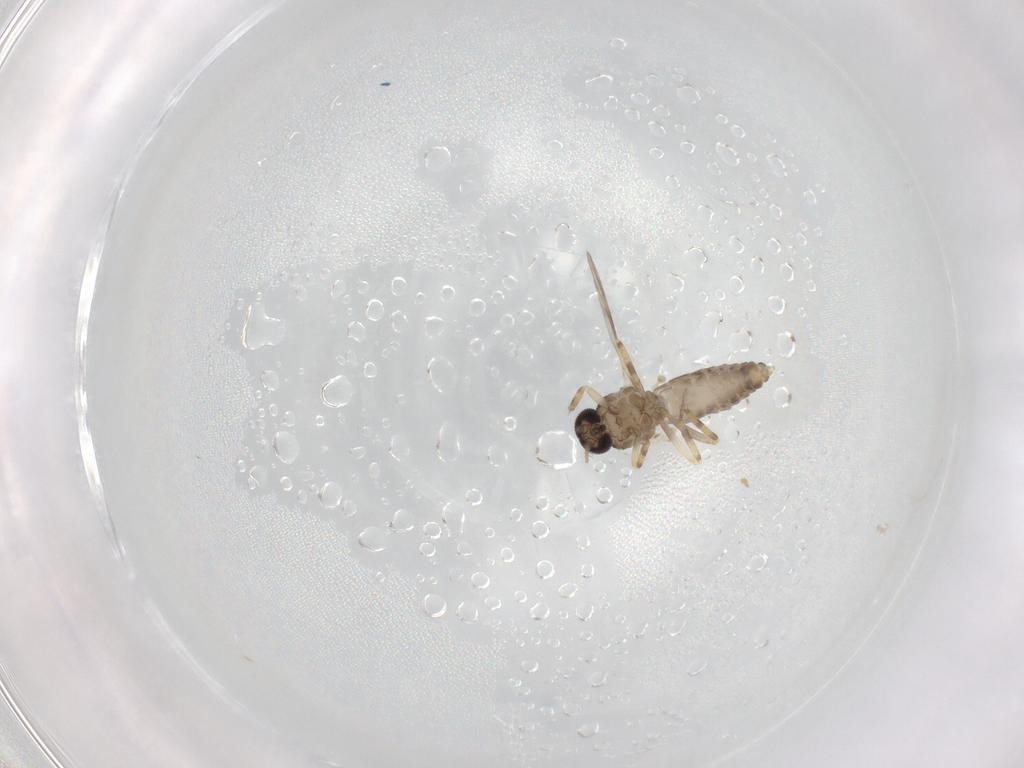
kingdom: Animalia
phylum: Arthropoda
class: Insecta
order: Diptera
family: Ceratopogonidae
